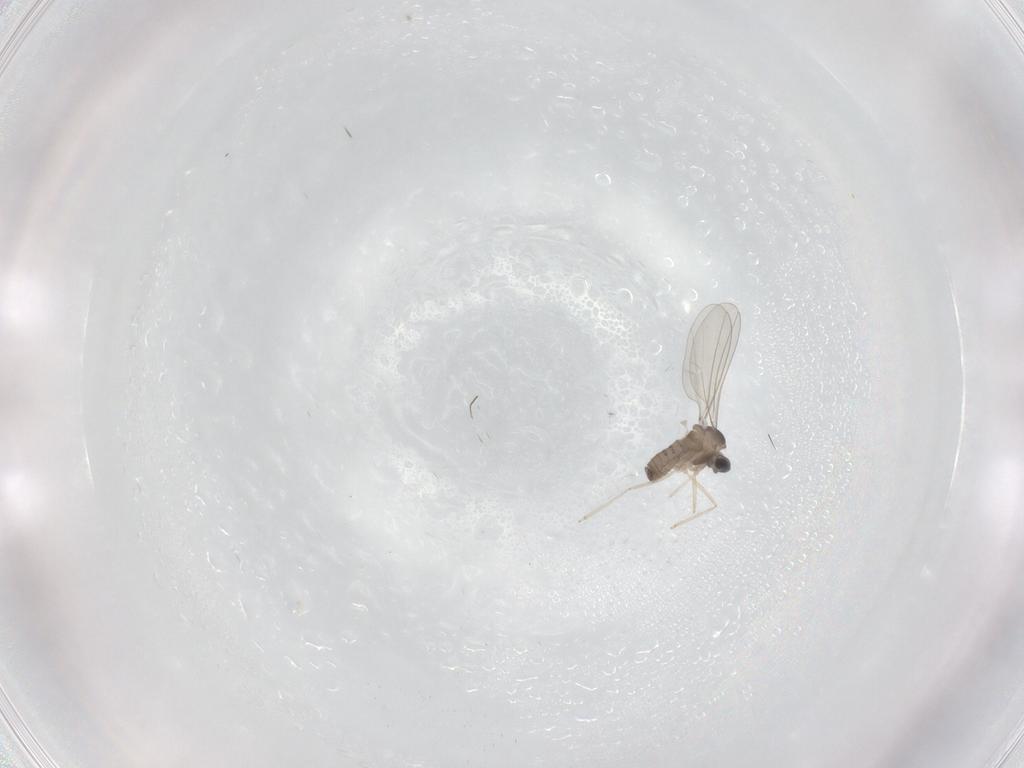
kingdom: Animalia
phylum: Arthropoda
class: Insecta
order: Diptera
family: Cecidomyiidae
